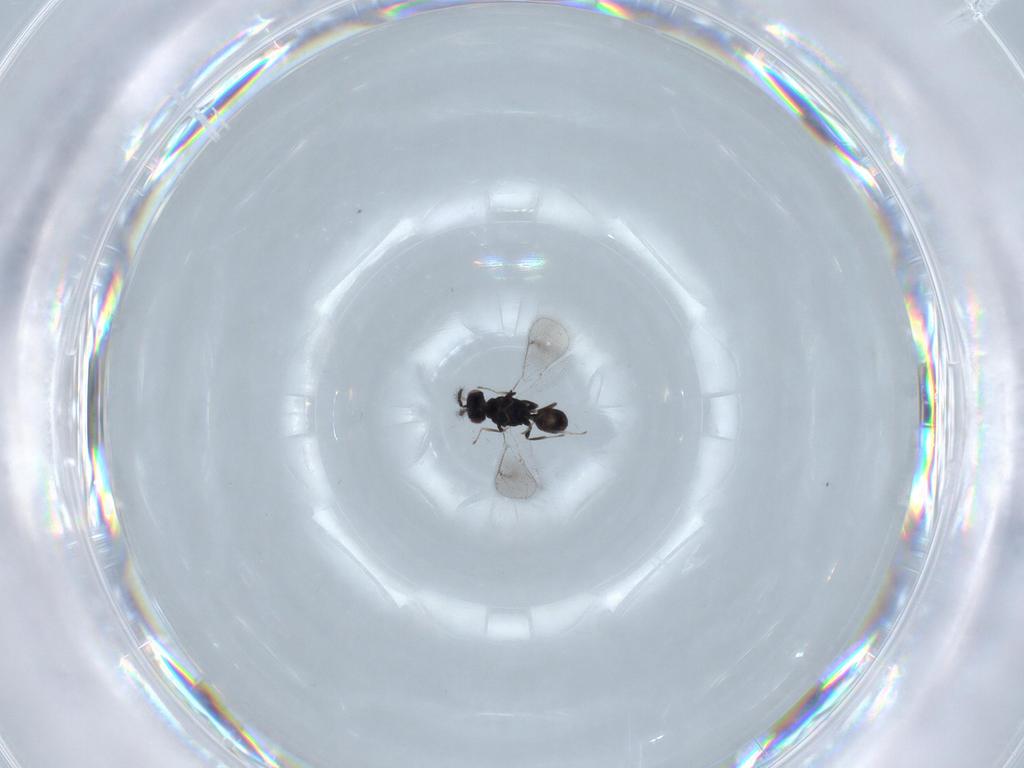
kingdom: Animalia
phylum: Arthropoda
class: Insecta
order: Hymenoptera
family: Eulophidae
